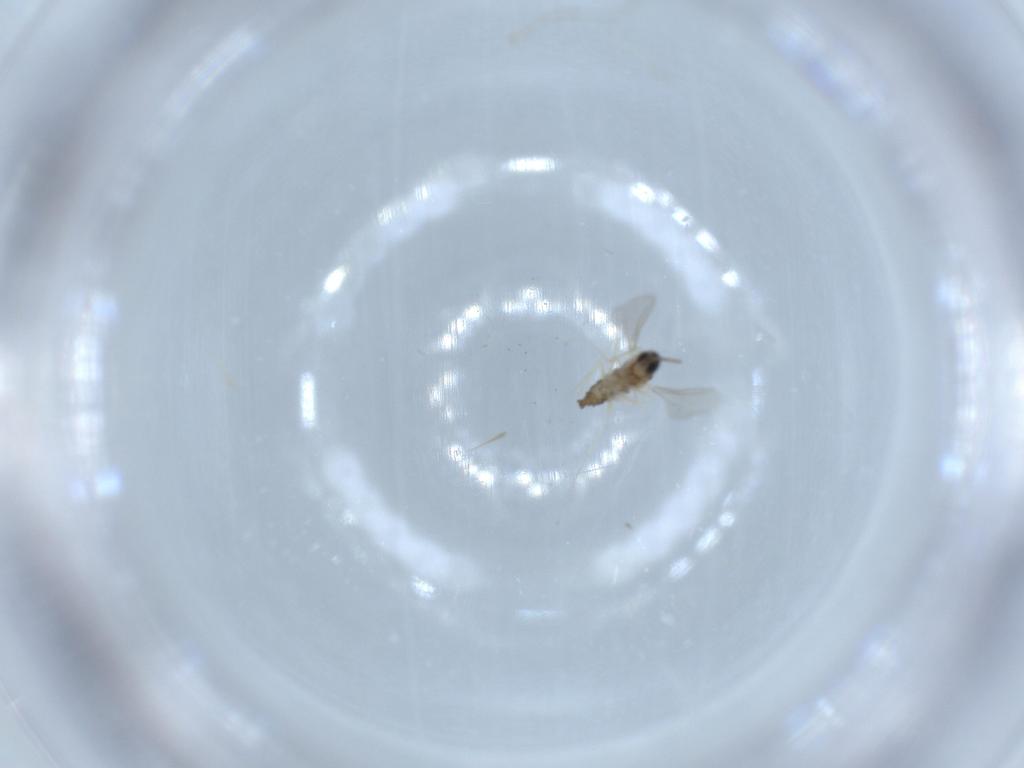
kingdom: Animalia
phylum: Arthropoda
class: Insecta
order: Diptera
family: Cecidomyiidae
